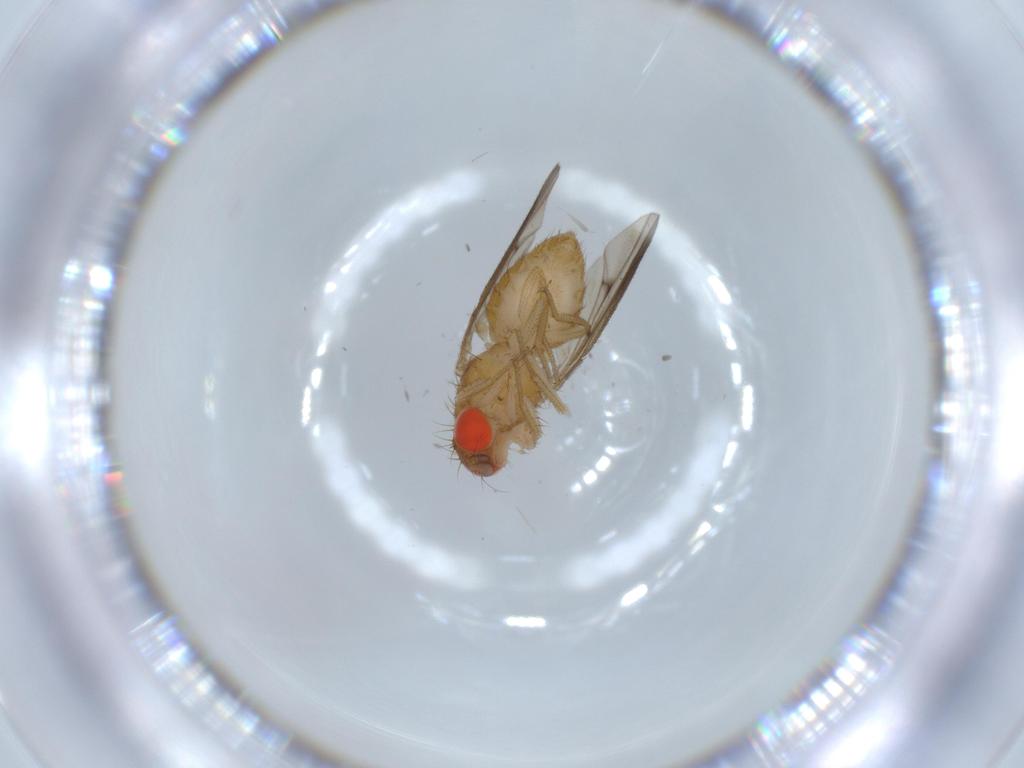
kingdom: Animalia
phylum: Arthropoda
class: Insecta
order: Diptera
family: Drosophilidae
